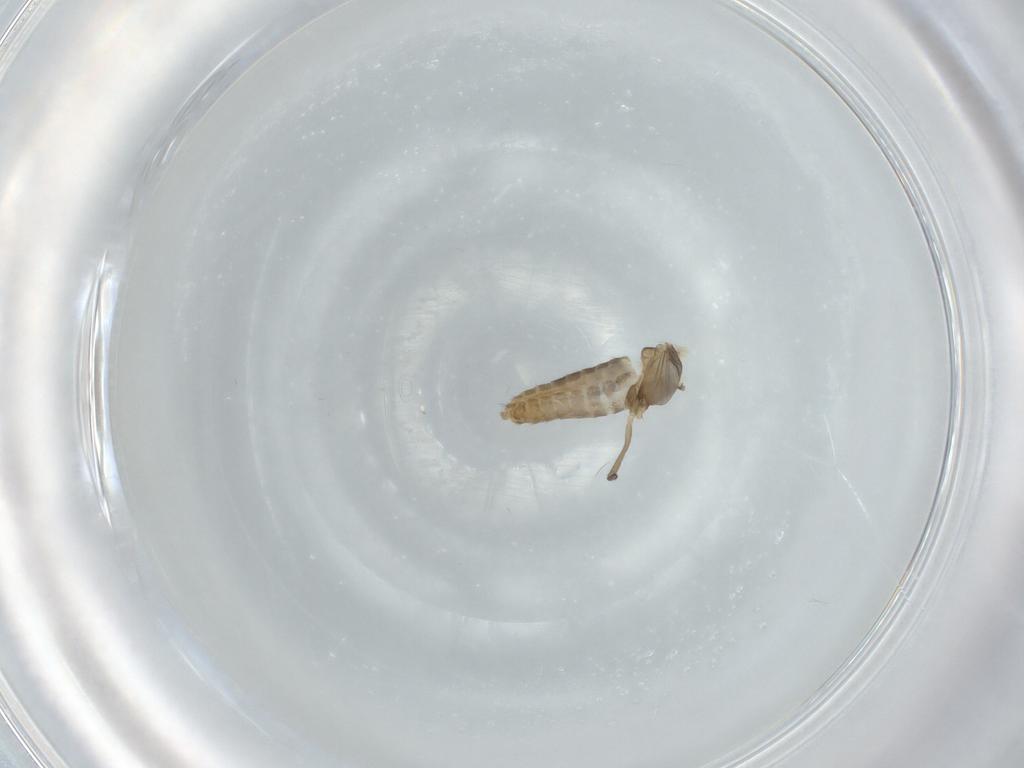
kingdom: Animalia
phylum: Arthropoda
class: Insecta
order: Diptera
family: Chironomidae
